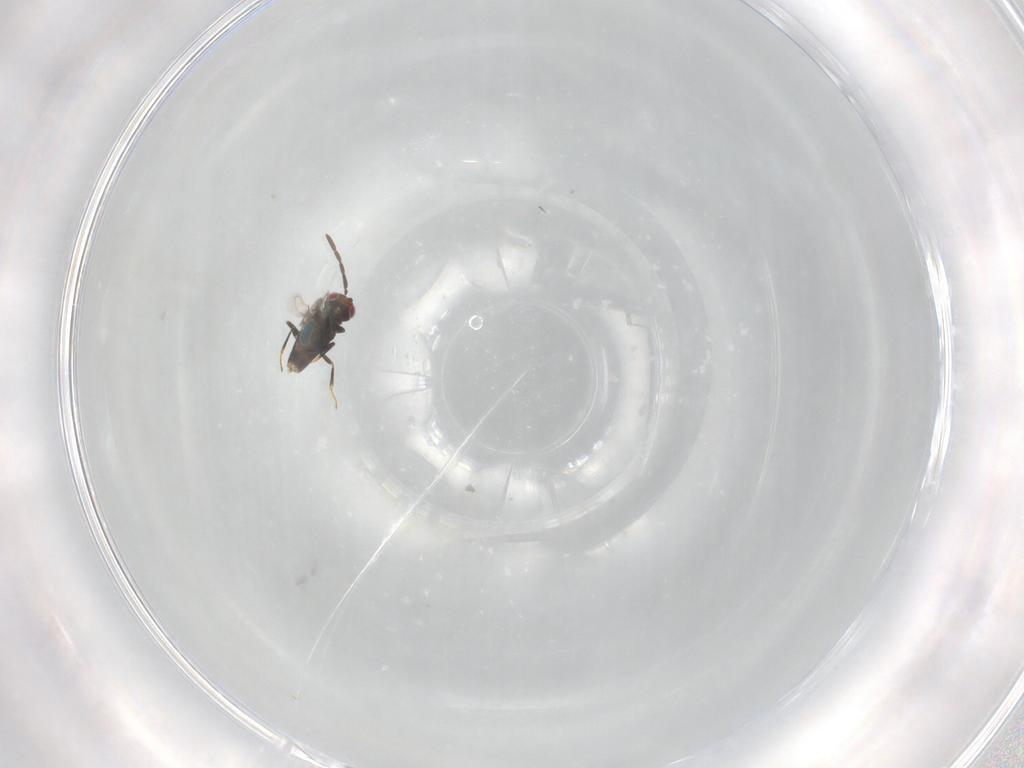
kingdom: Animalia
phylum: Arthropoda
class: Insecta
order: Hymenoptera
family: Azotidae
